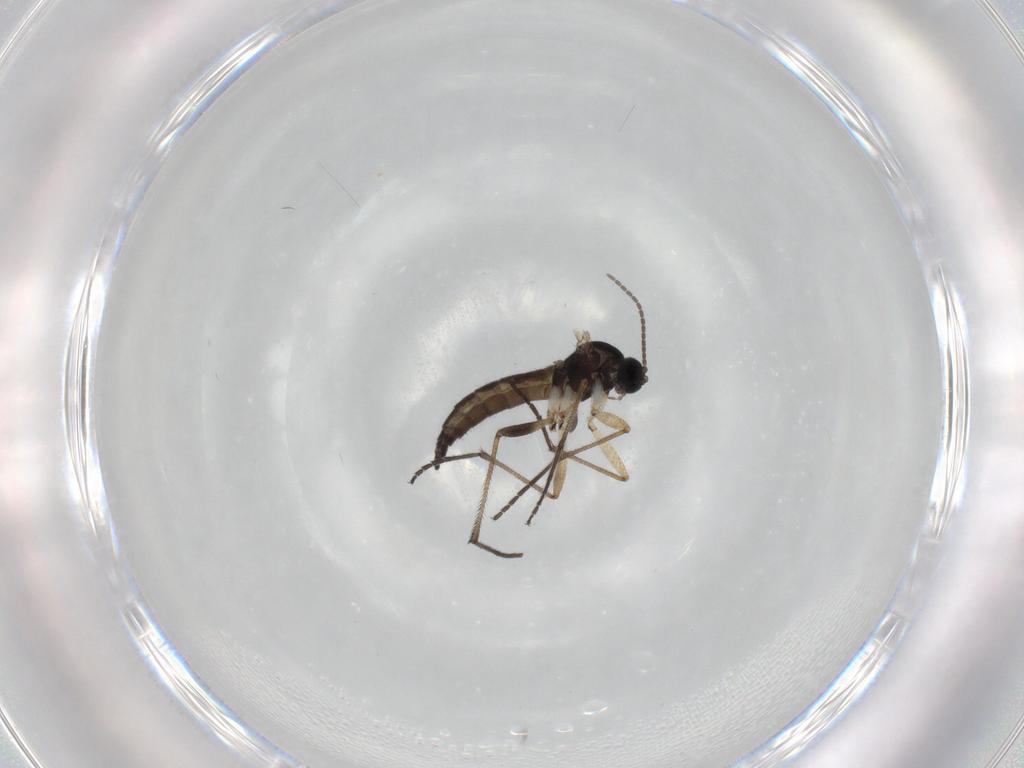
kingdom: Animalia
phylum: Arthropoda
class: Insecta
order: Diptera
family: Sciaridae
